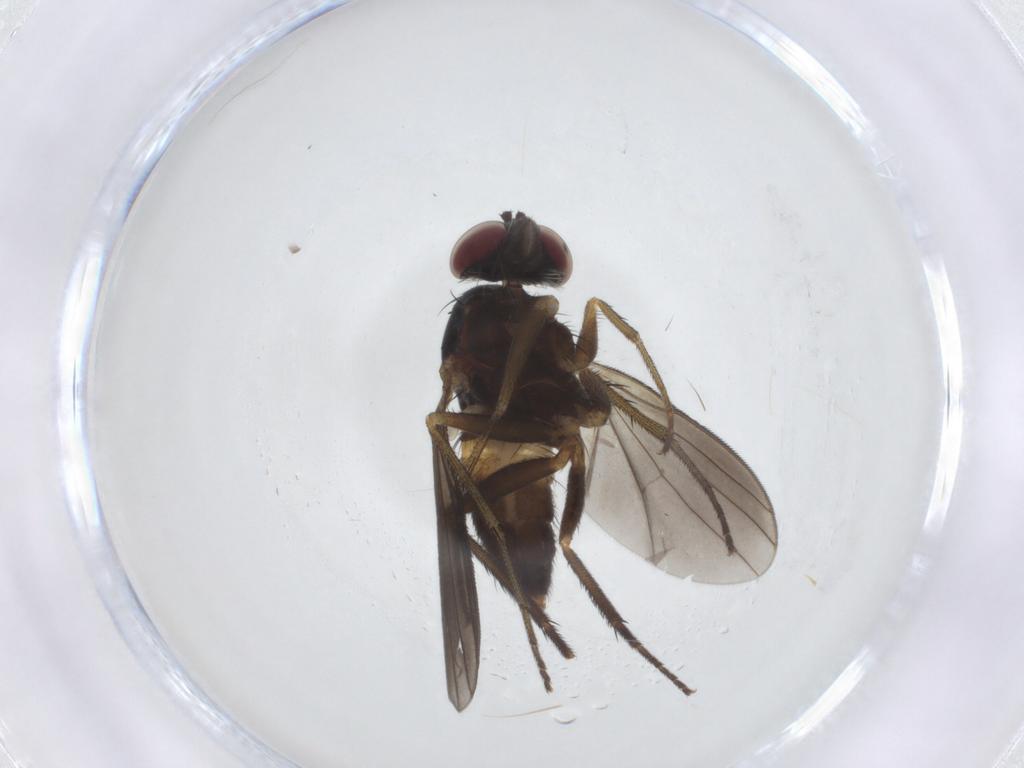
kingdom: Animalia
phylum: Arthropoda
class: Insecta
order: Diptera
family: Dolichopodidae
